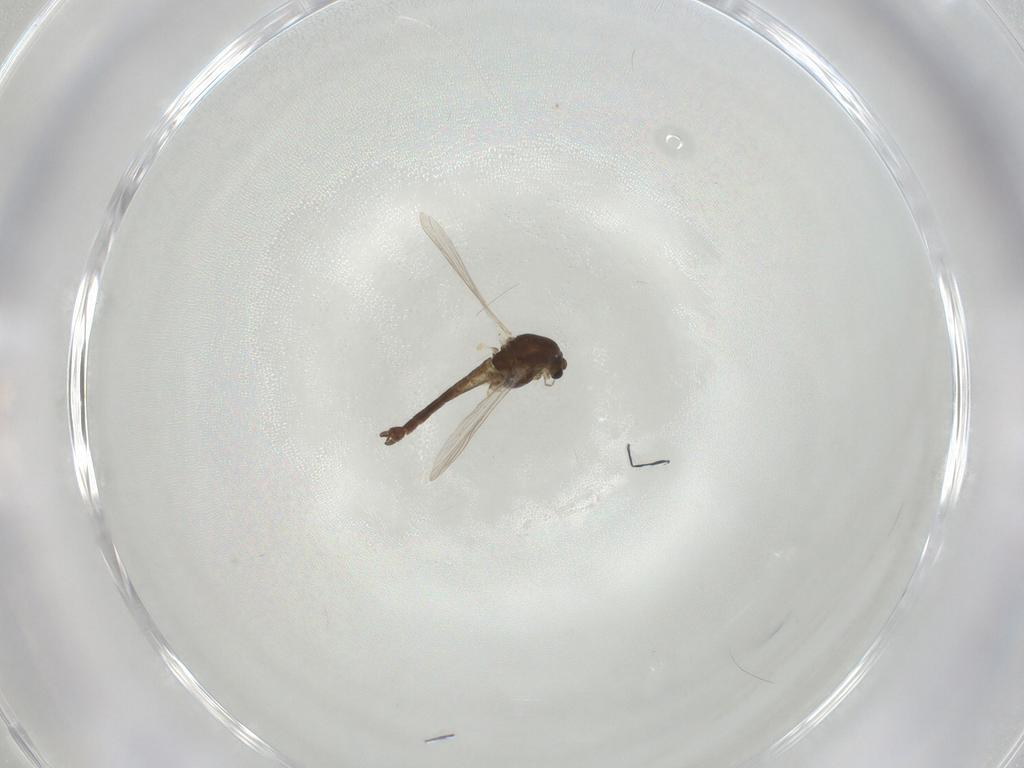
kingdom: Animalia
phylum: Arthropoda
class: Insecta
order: Diptera
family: Chironomidae
